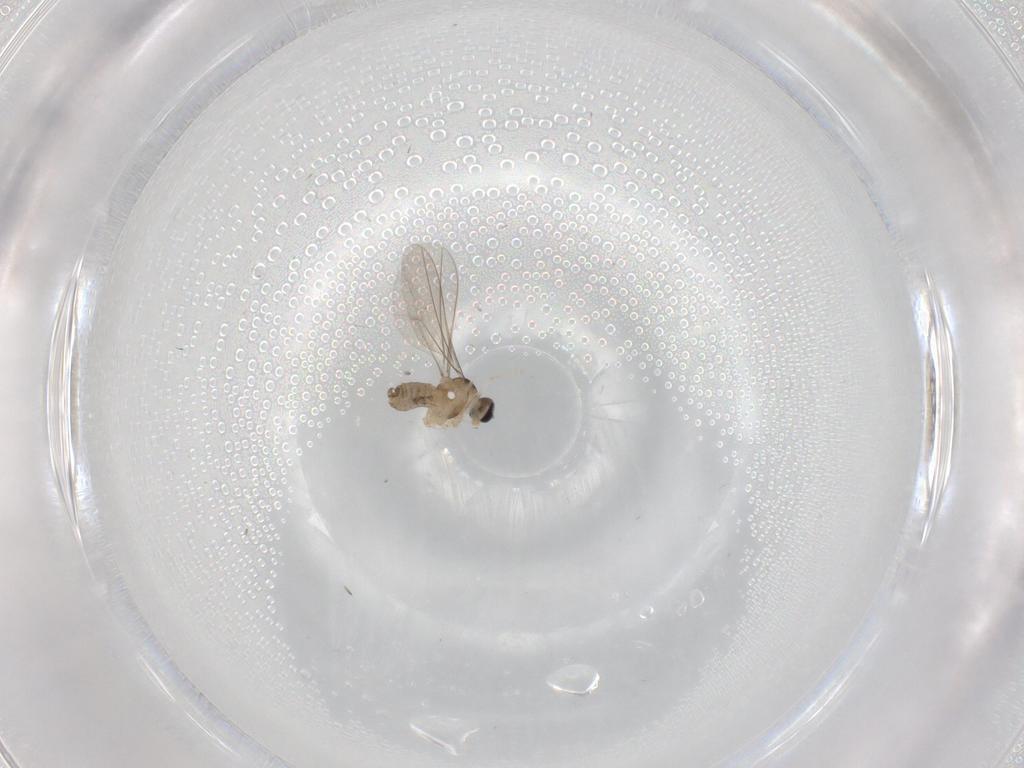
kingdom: Animalia
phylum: Arthropoda
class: Insecta
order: Diptera
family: Cecidomyiidae
